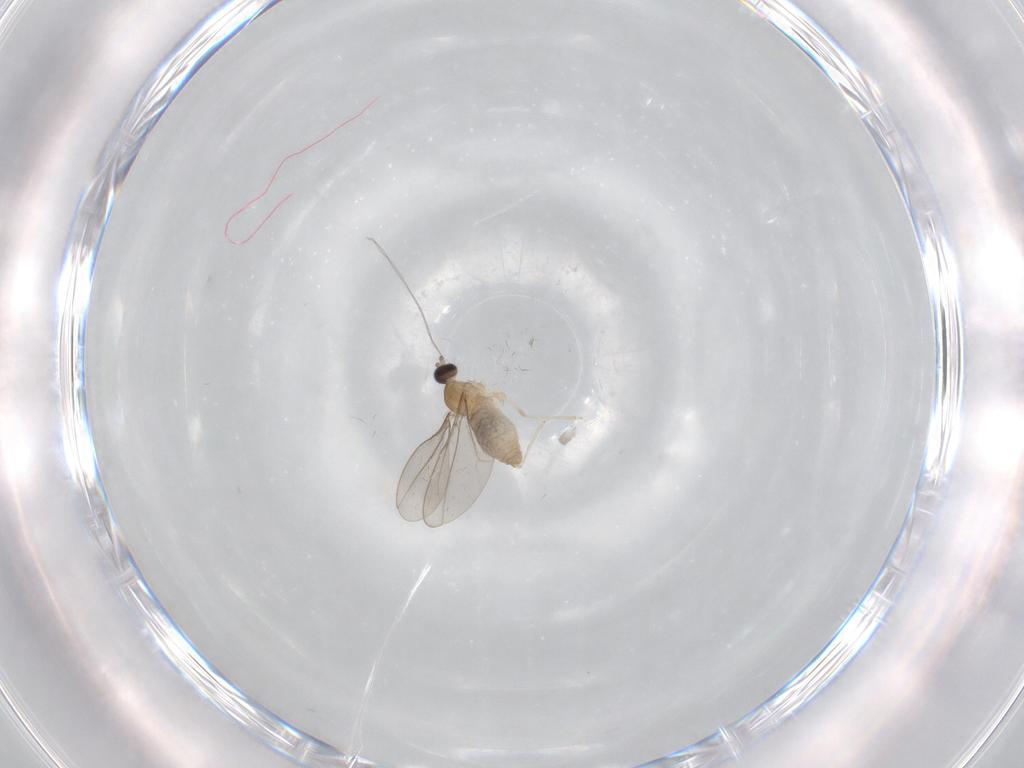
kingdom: Animalia
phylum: Arthropoda
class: Insecta
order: Diptera
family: Cecidomyiidae
